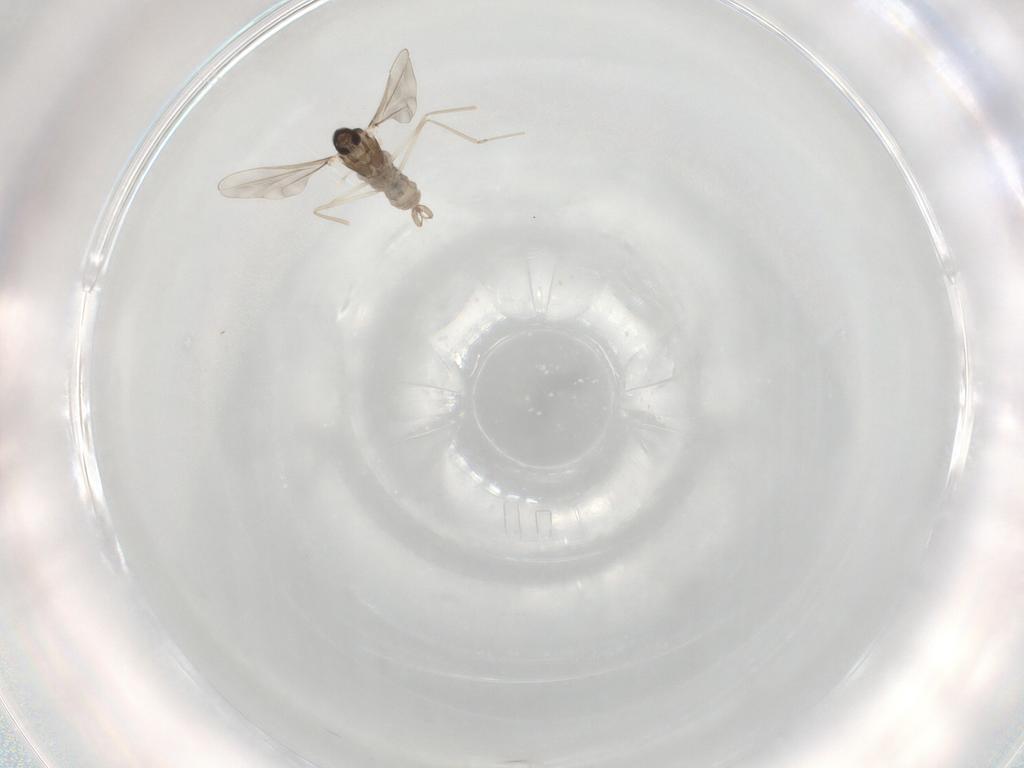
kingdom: Animalia
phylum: Arthropoda
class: Insecta
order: Diptera
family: Cecidomyiidae
